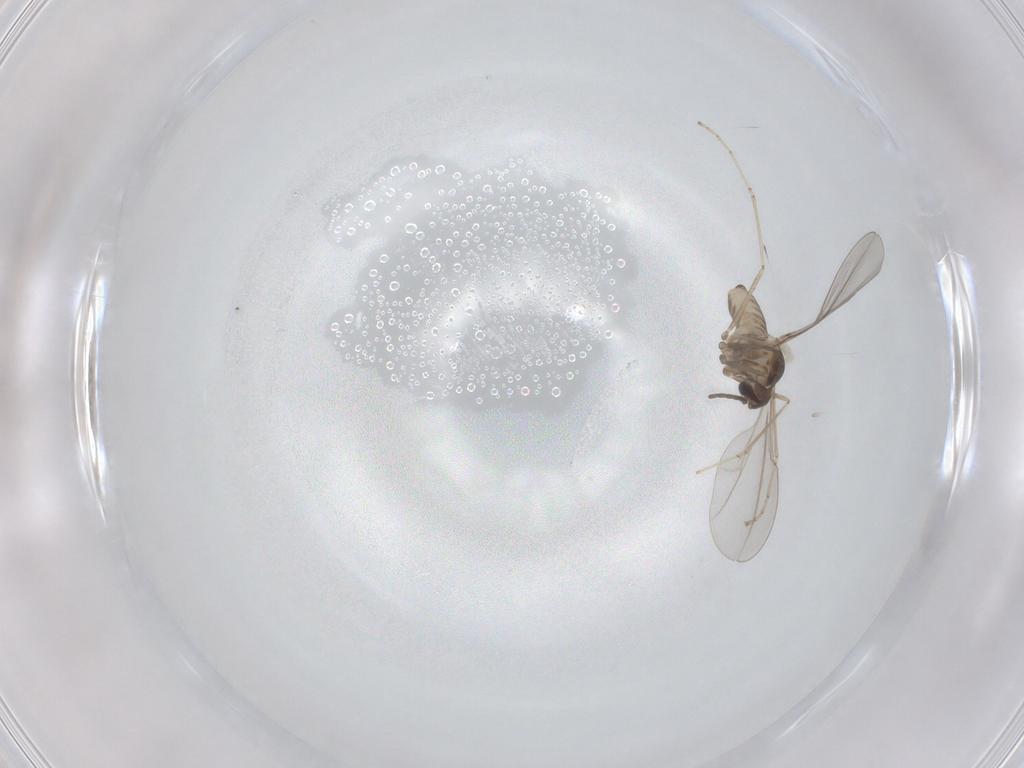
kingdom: Animalia
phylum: Arthropoda
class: Insecta
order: Diptera
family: Cecidomyiidae
